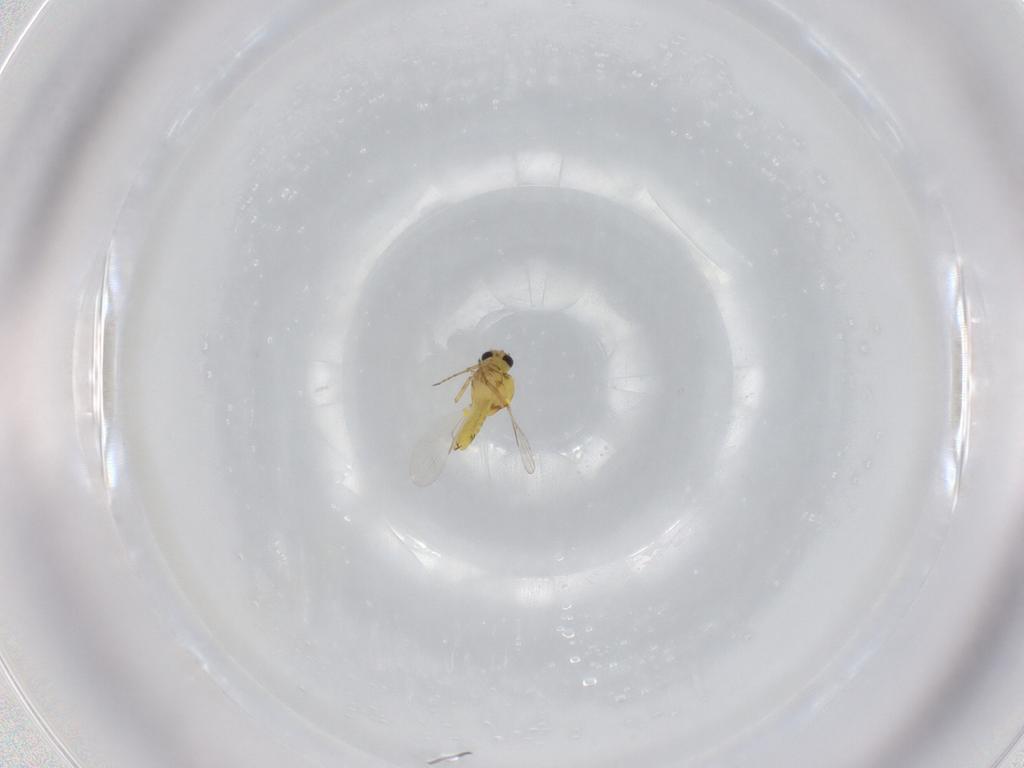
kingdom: Animalia
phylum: Arthropoda
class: Insecta
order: Diptera
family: Ceratopogonidae
